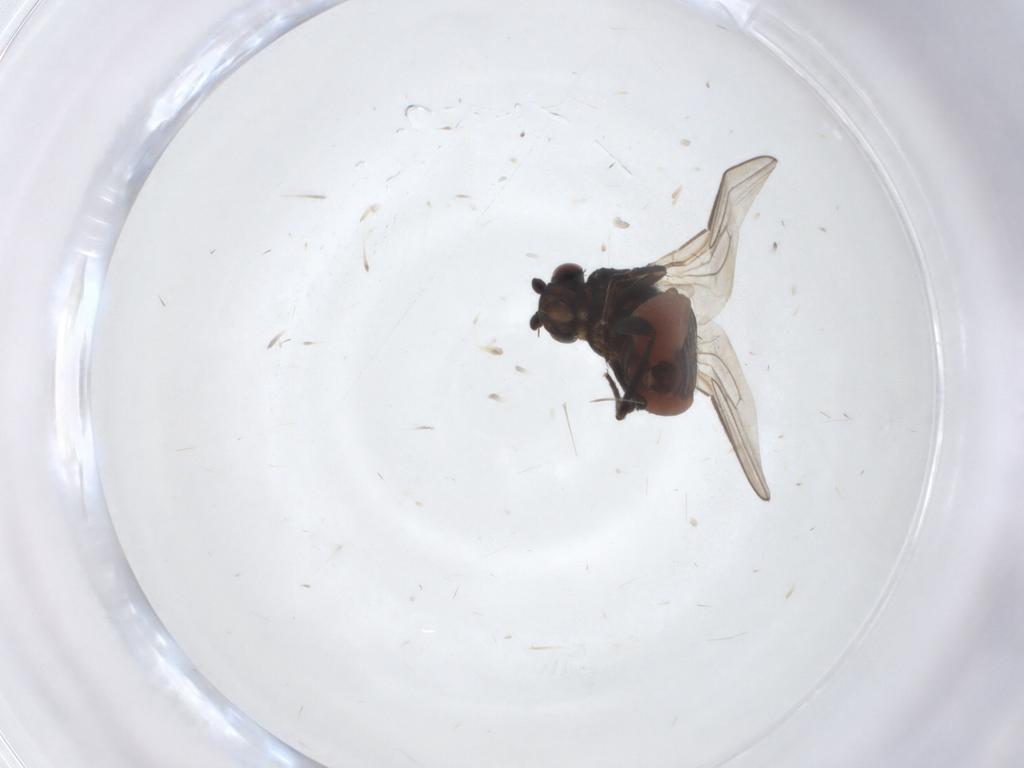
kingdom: Animalia
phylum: Arthropoda
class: Insecta
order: Diptera
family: Sphaeroceridae
